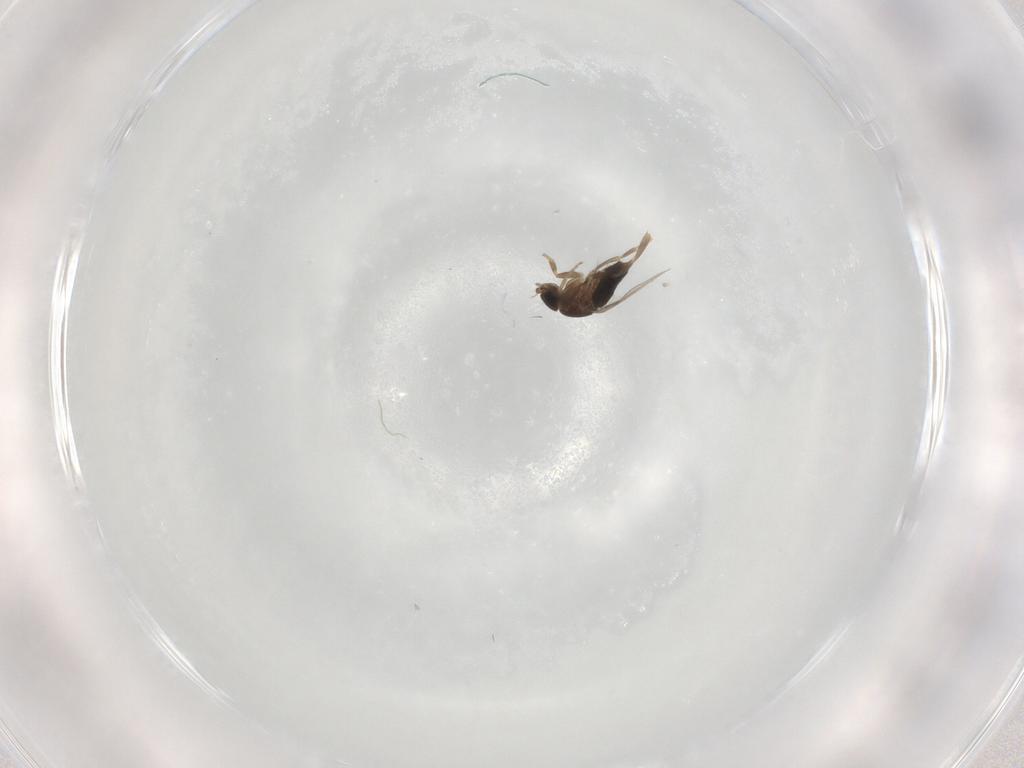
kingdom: Animalia
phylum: Arthropoda
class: Insecta
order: Diptera
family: Phoridae
